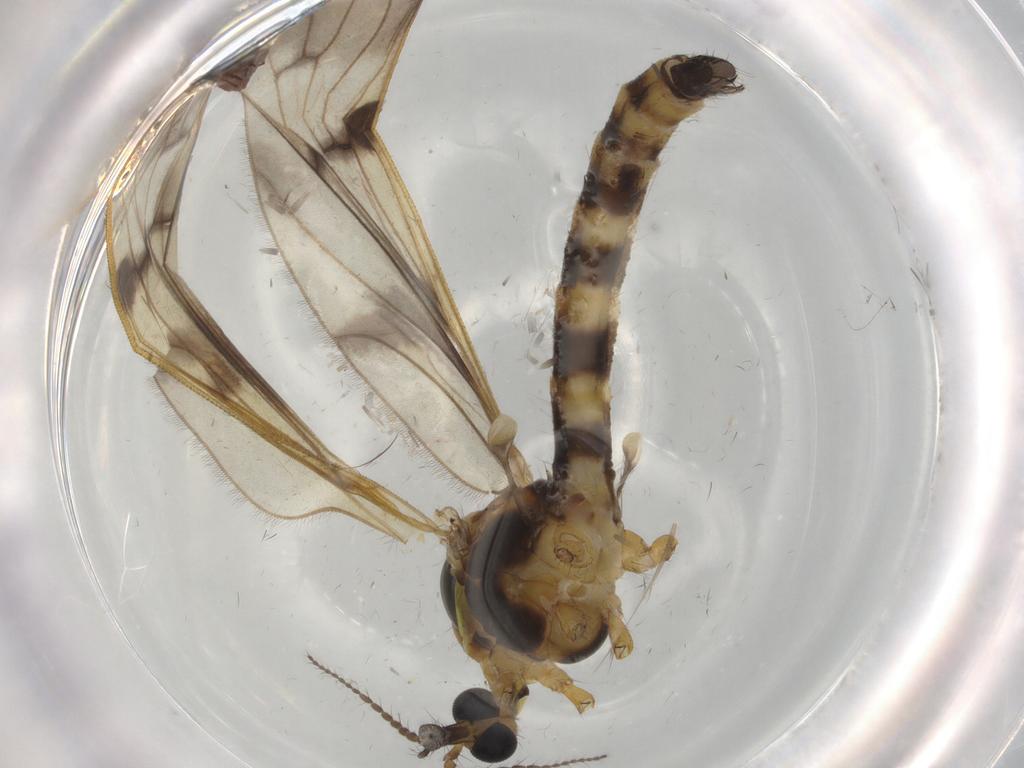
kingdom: Animalia
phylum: Arthropoda
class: Insecta
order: Diptera
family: Limoniidae
